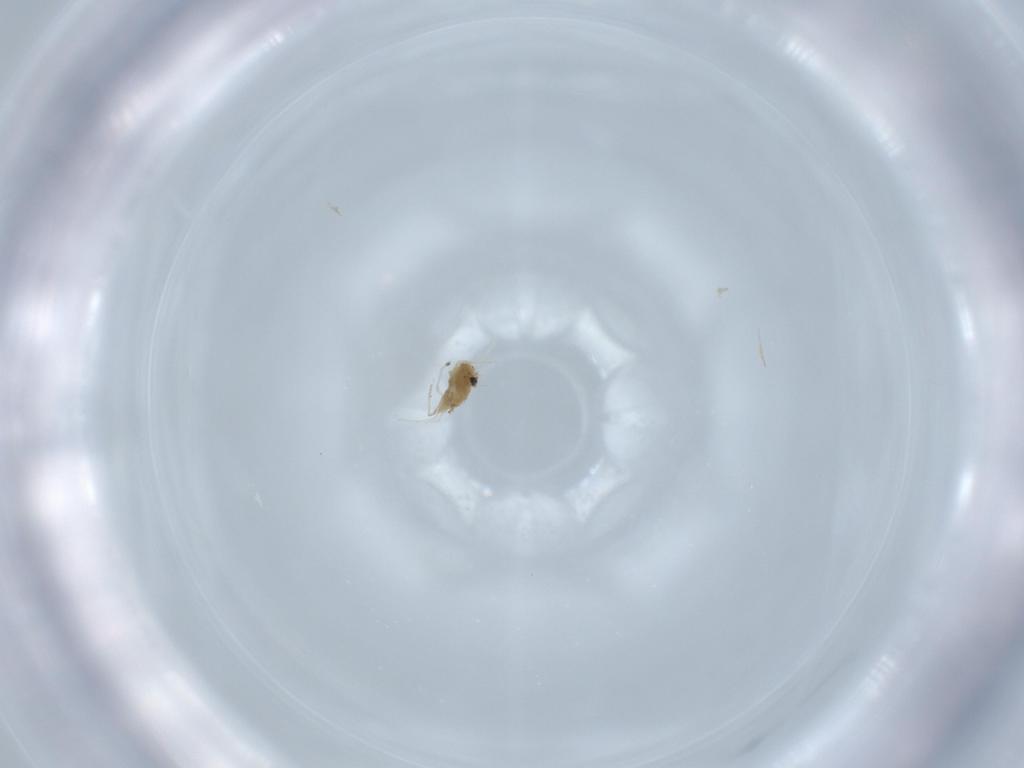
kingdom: Animalia
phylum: Arthropoda
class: Arachnida
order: Trombidiformes
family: Tetranychidae
